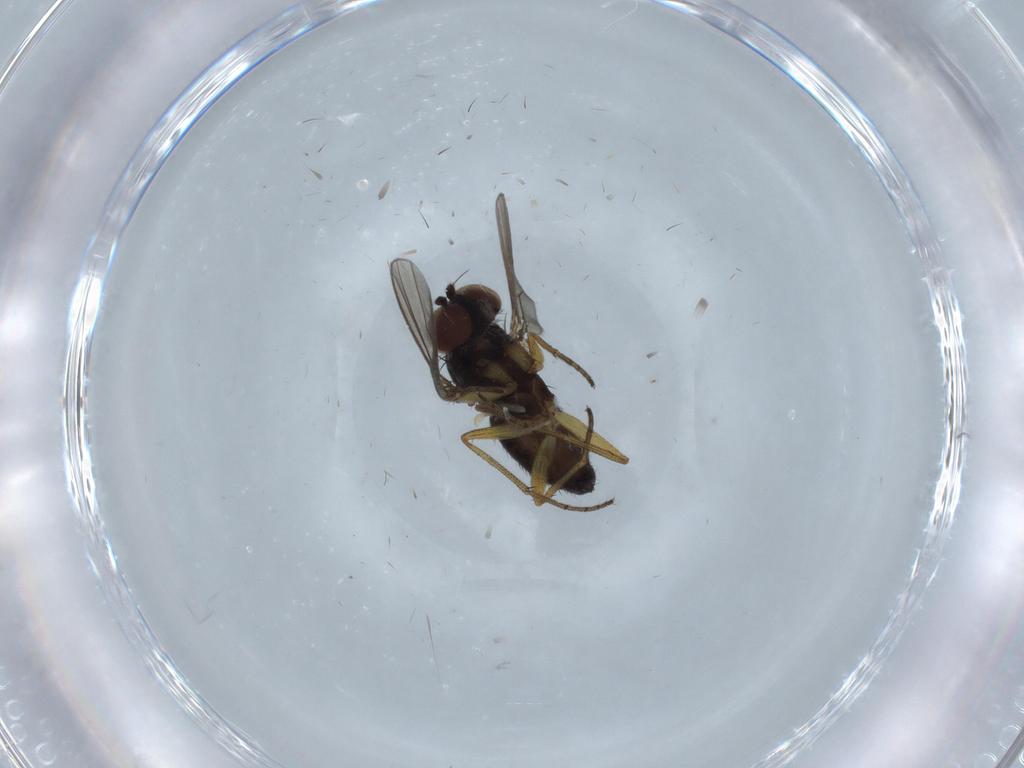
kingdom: Animalia
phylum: Arthropoda
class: Insecta
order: Diptera
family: Dolichopodidae
